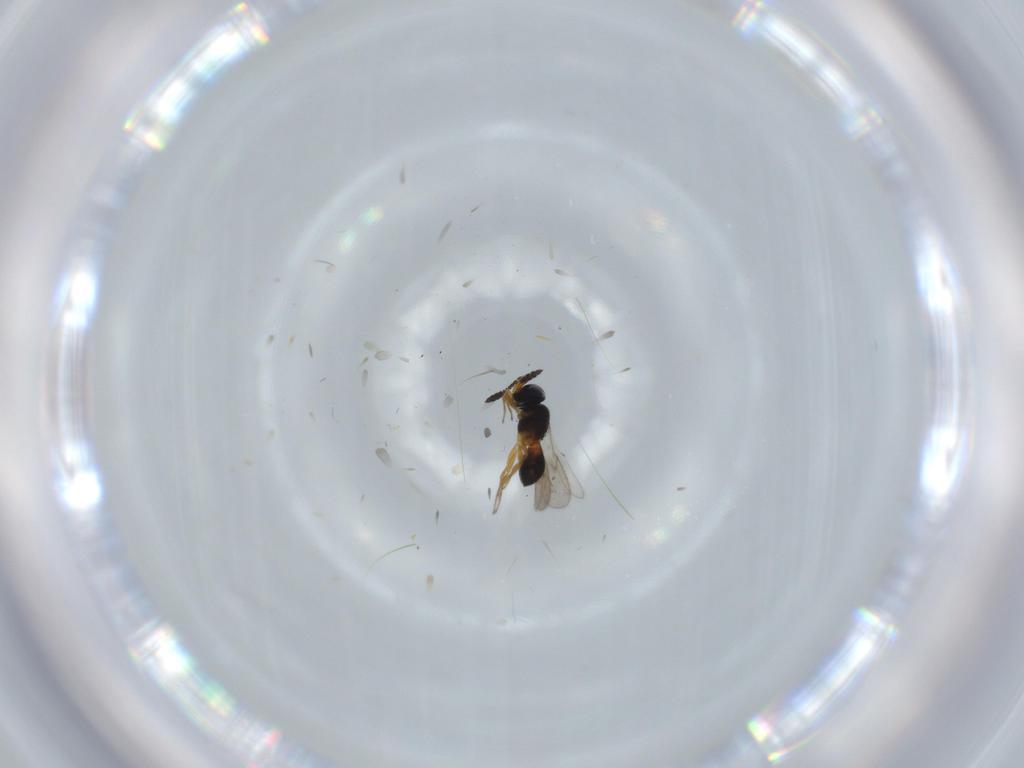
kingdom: Animalia
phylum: Arthropoda
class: Insecta
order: Hymenoptera
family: Scelionidae
